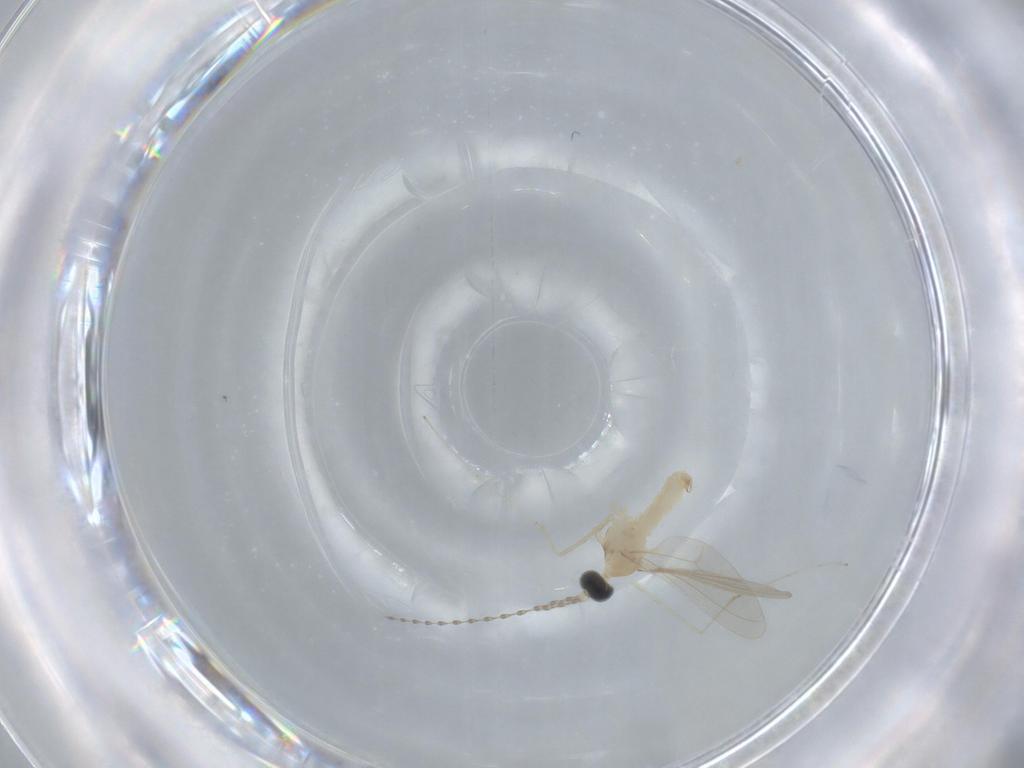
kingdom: Animalia
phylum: Arthropoda
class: Insecta
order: Diptera
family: Cecidomyiidae
